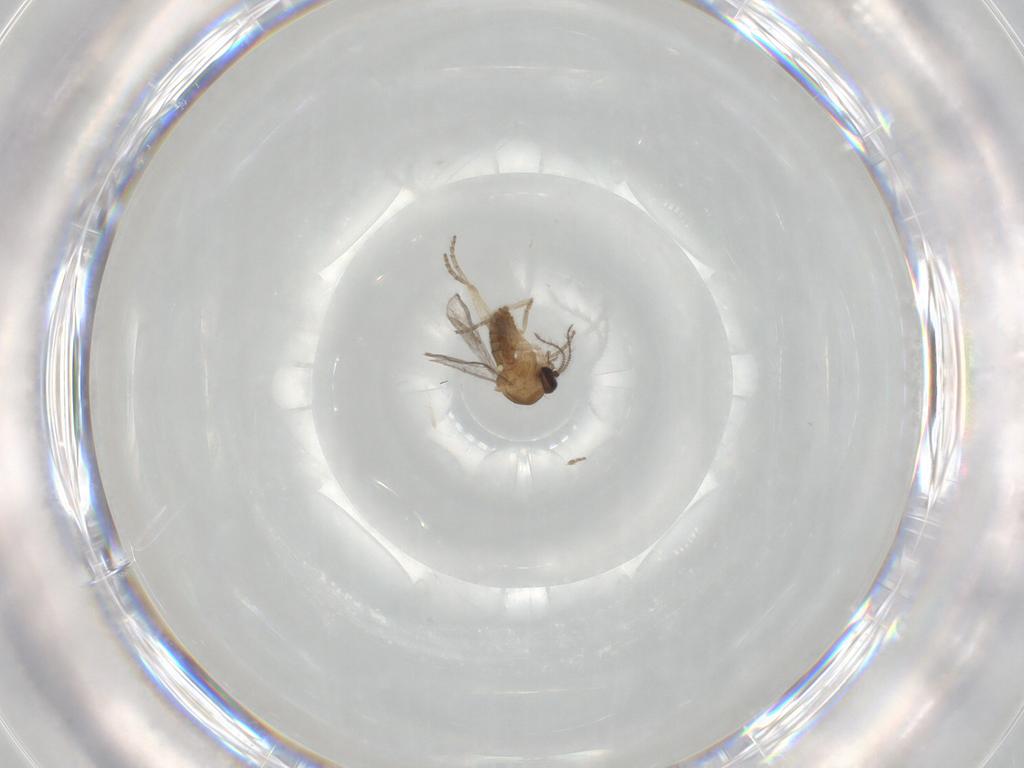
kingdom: Animalia
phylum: Arthropoda
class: Insecta
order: Diptera
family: Ceratopogonidae
